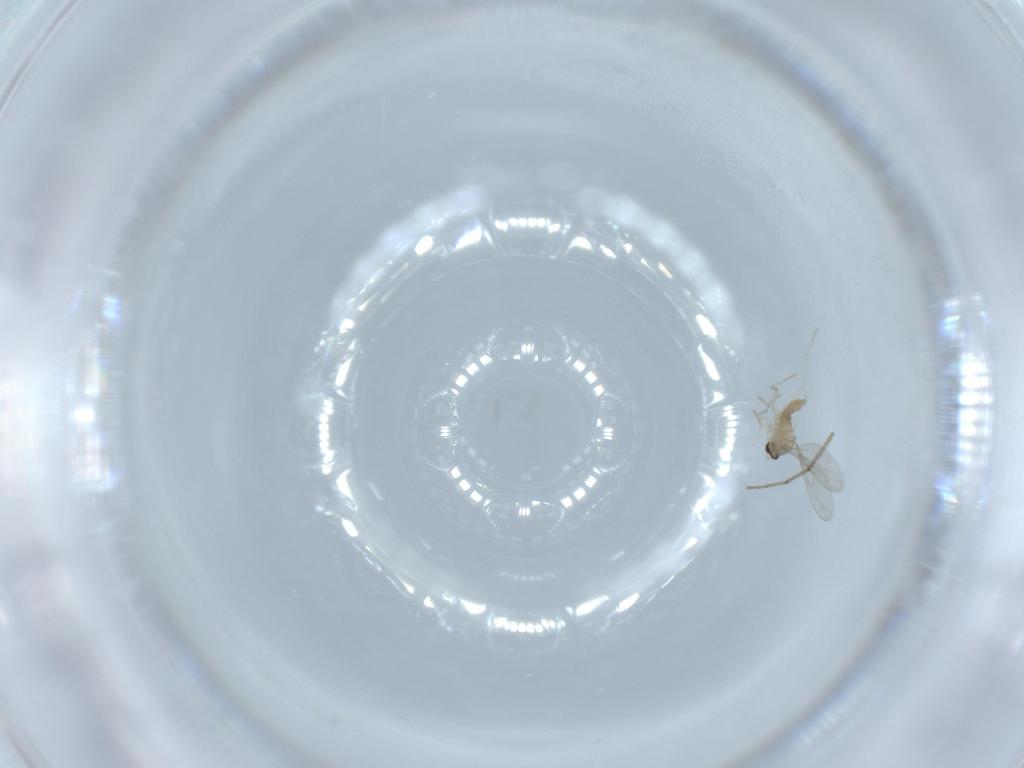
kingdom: Animalia
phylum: Arthropoda
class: Insecta
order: Diptera
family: Cecidomyiidae
